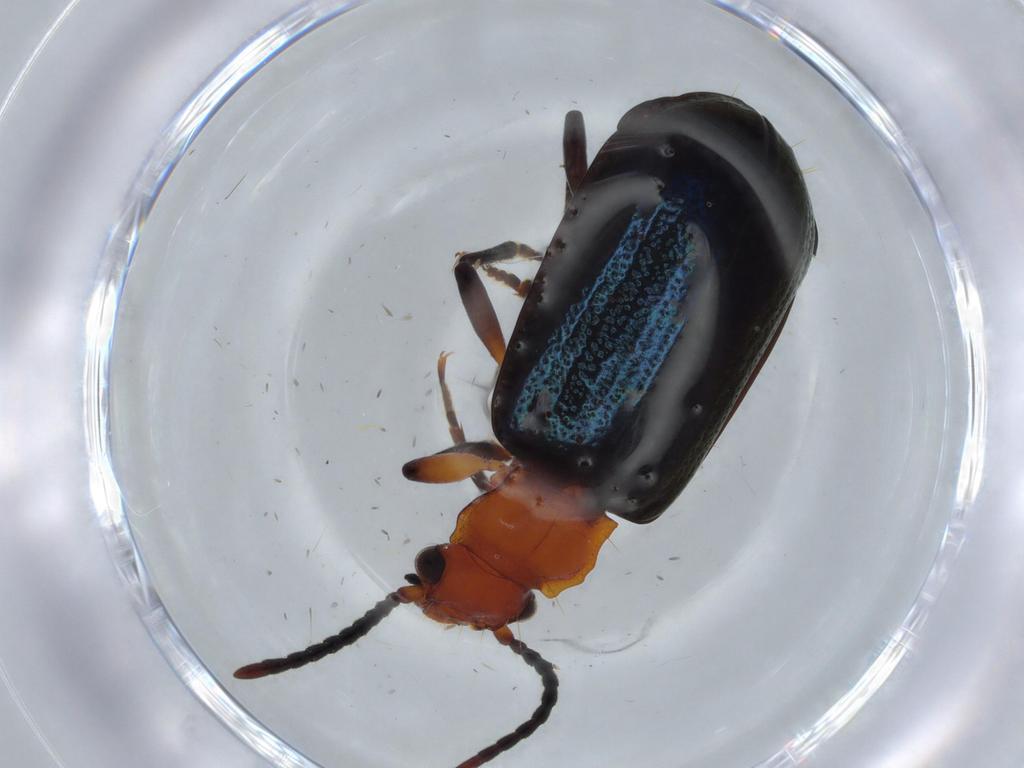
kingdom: Animalia
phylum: Arthropoda
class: Insecta
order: Coleoptera
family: Carabidae
